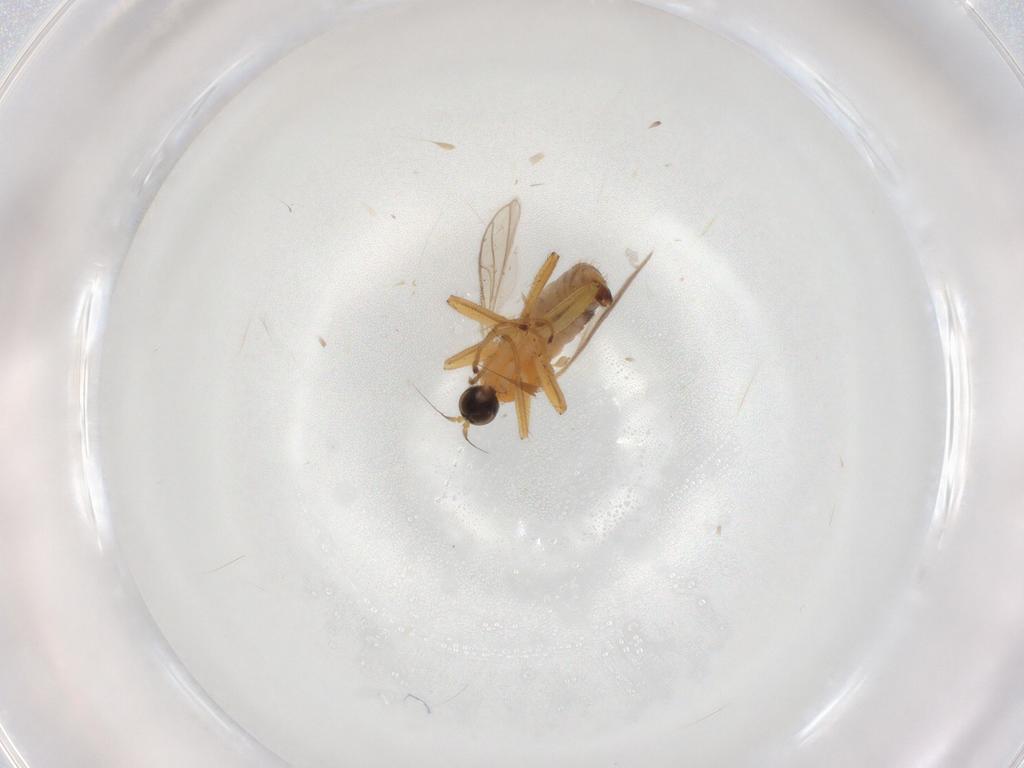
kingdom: Animalia
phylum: Arthropoda
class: Insecta
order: Diptera
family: Hybotidae
